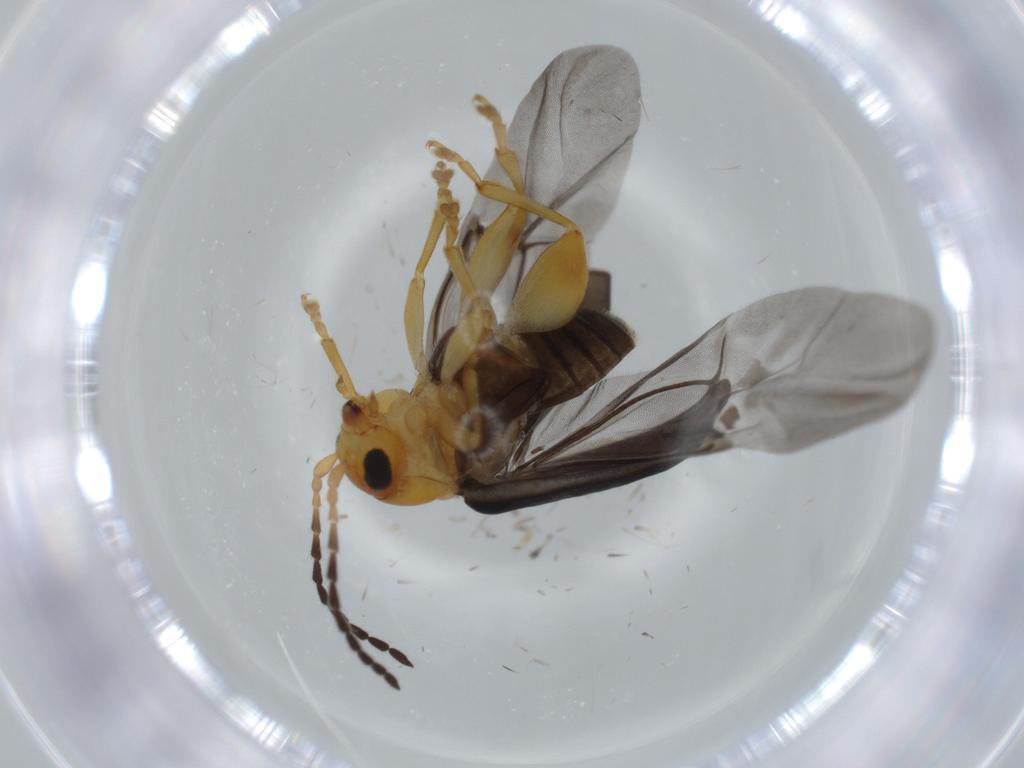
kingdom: Animalia
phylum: Arthropoda
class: Insecta
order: Coleoptera
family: Chrysomelidae
